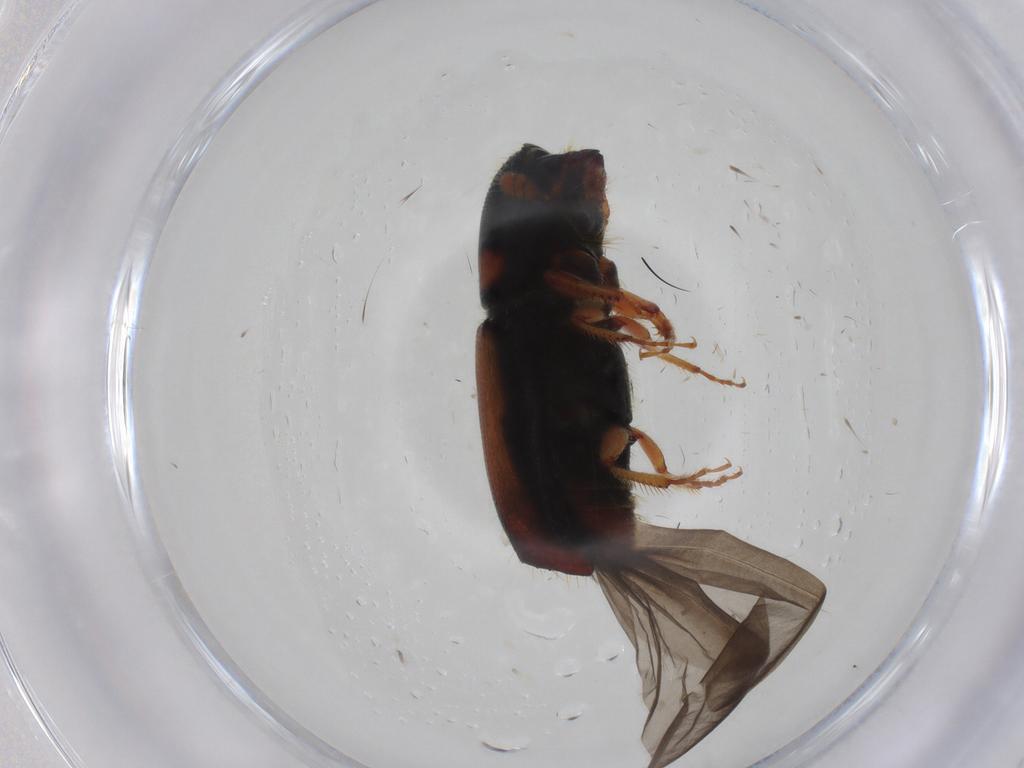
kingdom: Animalia
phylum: Arthropoda
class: Insecta
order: Coleoptera
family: Curculionidae
